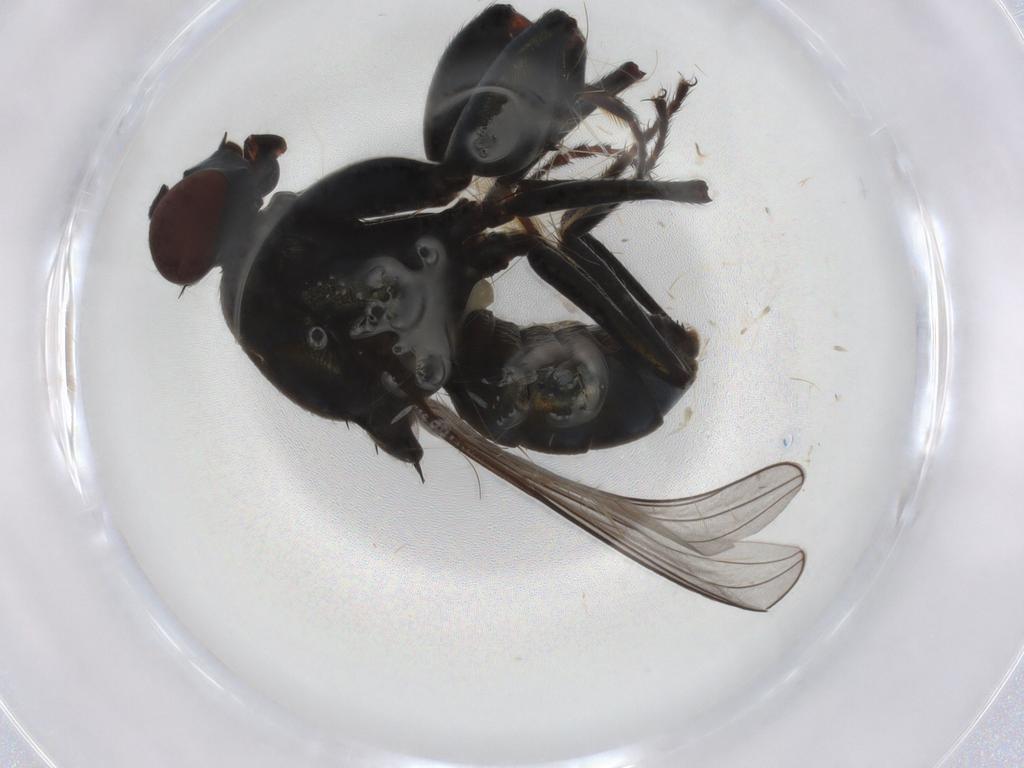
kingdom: Animalia
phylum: Arthropoda
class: Insecta
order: Diptera
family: Ephydridae
